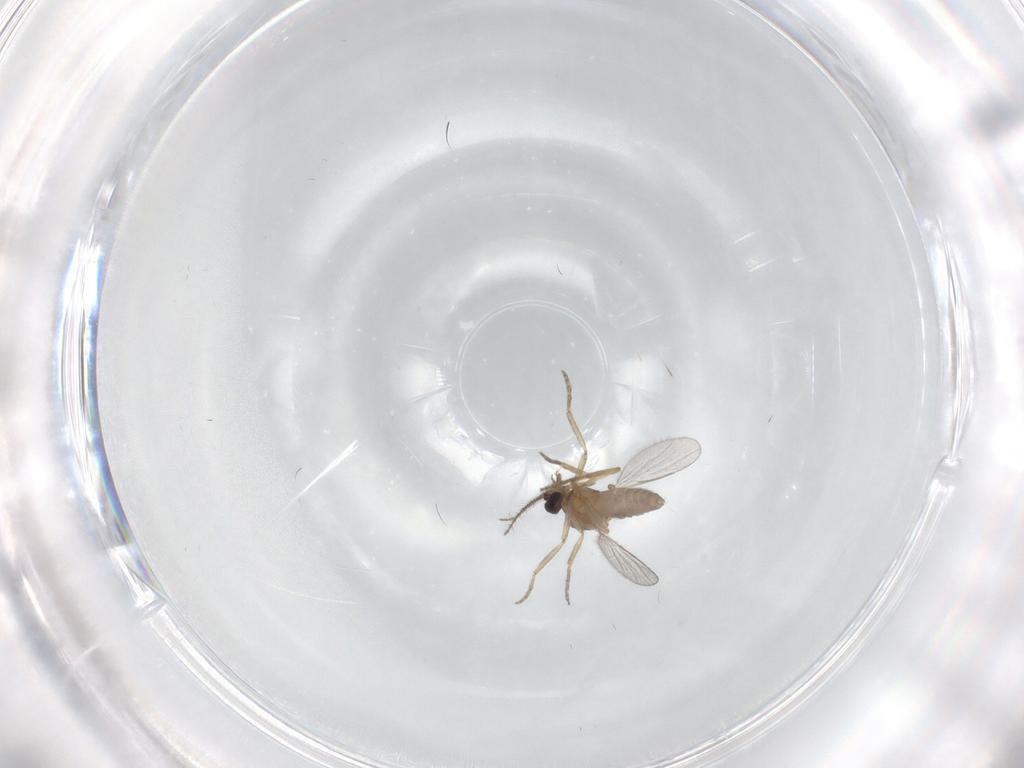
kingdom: Animalia
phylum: Arthropoda
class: Insecta
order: Diptera
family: Ceratopogonidae
